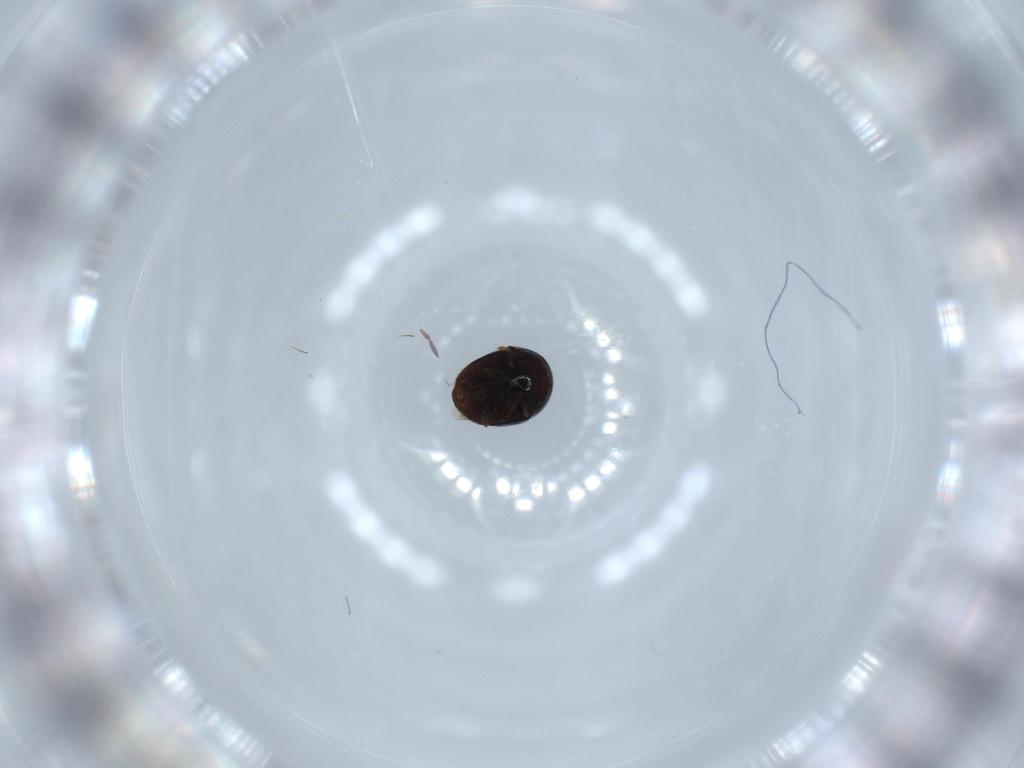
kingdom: Animalia
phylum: Arthropoda
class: Insecta
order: Coleoptera
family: Cybocephalidae
